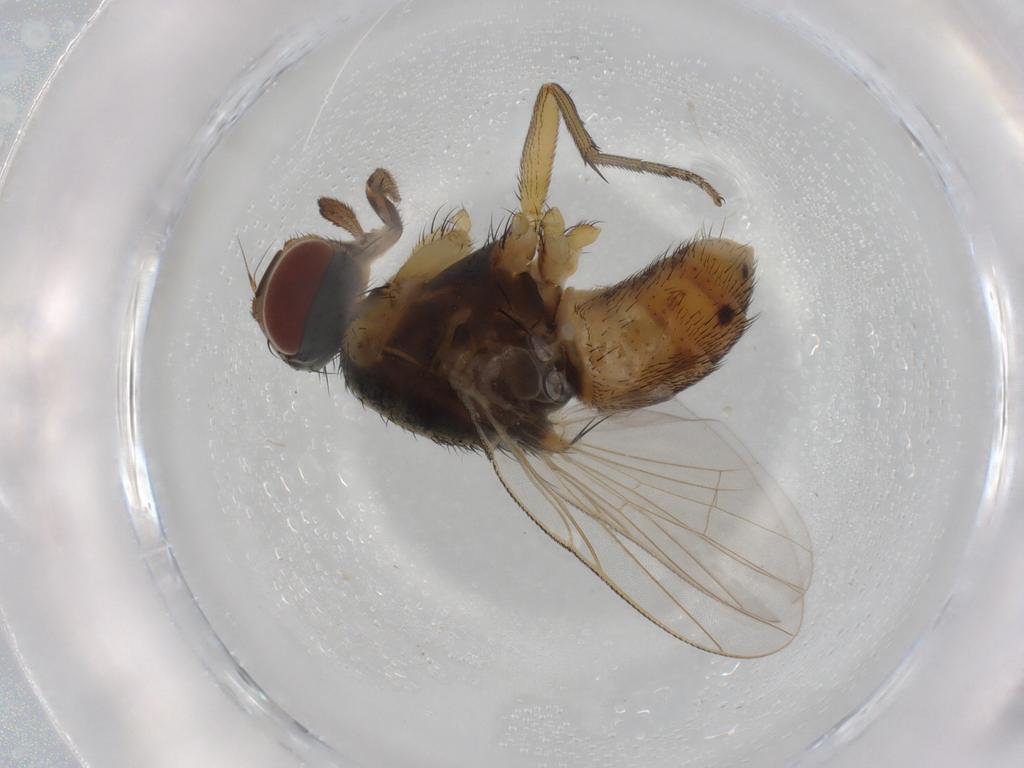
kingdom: Animalia
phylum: Arthropoda
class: Insecta
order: Diptera
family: Scatopsidae
